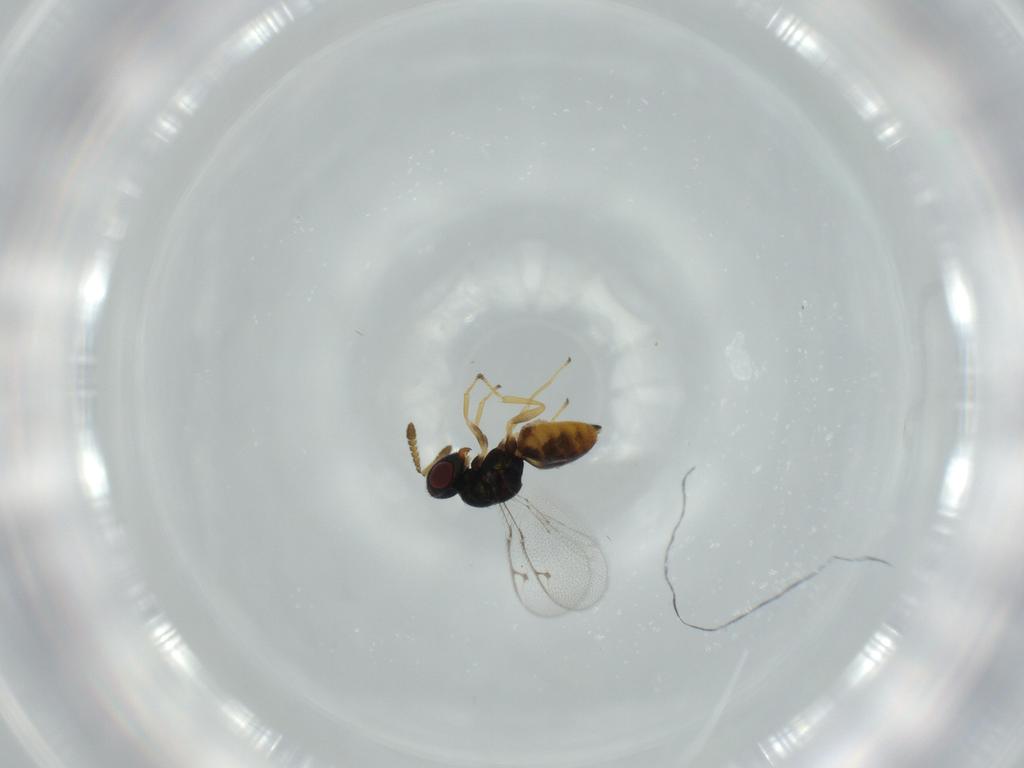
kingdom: Animalia
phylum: Arthropoda
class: Insecta
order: Hymenoptera
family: Pteromalidae
